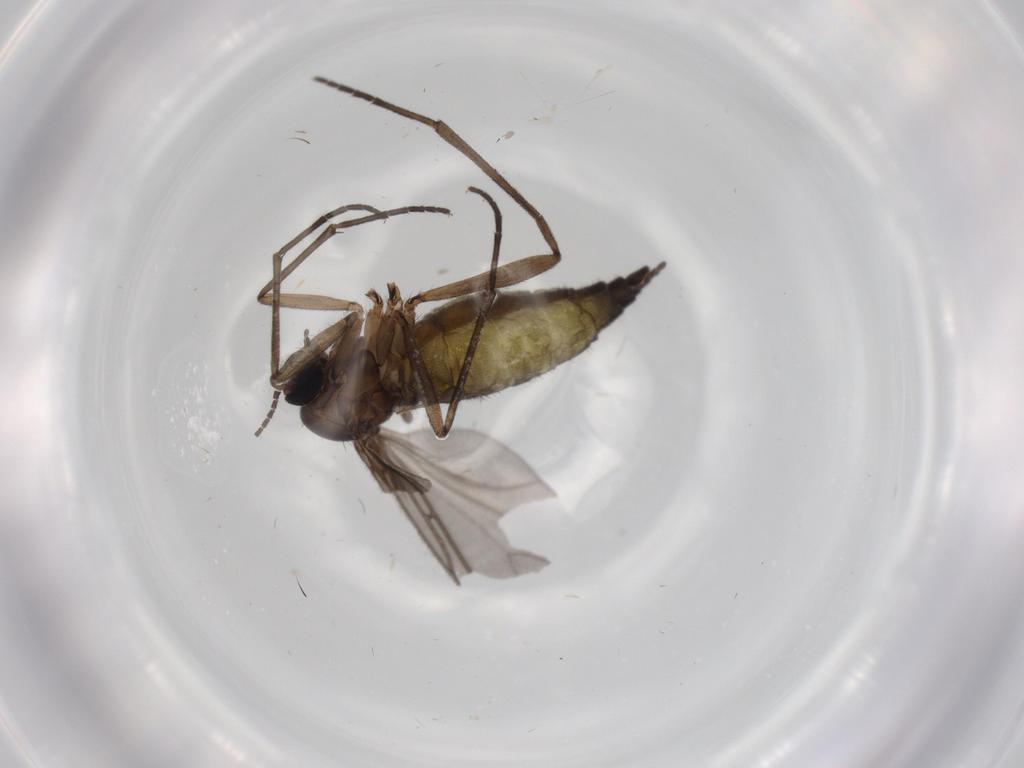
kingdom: Animalia
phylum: Arthropoda
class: Insecta
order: Diptera
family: Sciaridae
